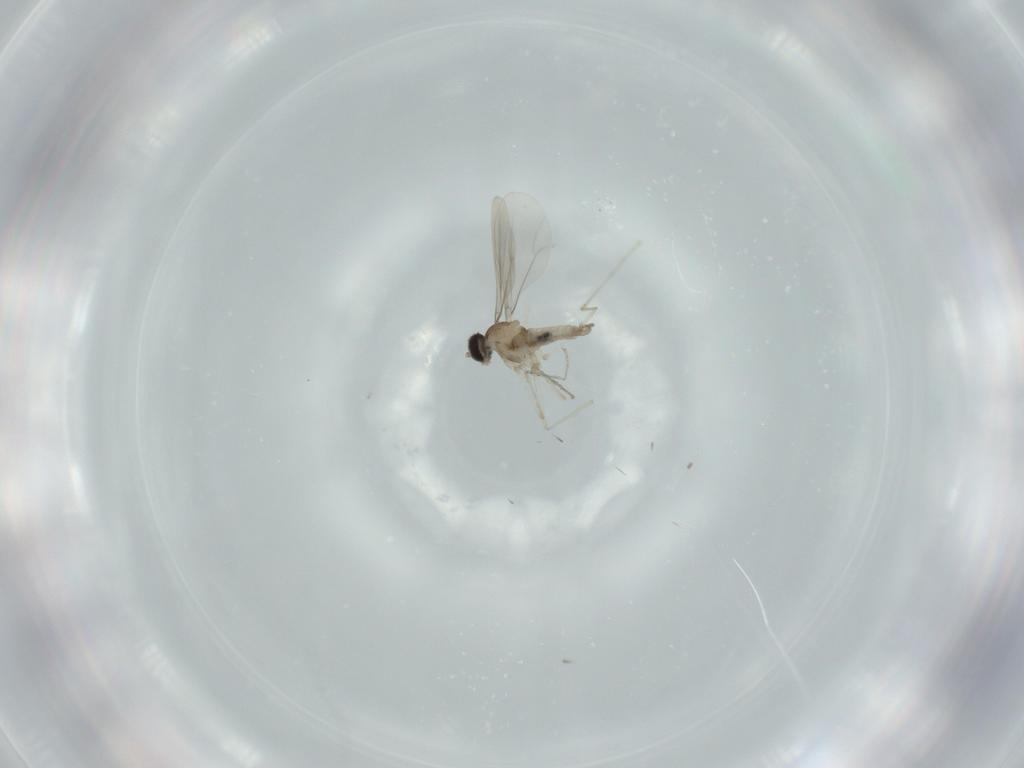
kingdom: Animalia
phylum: Arthropoda
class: Insecta
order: Diptera
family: Cecidomyiidae
